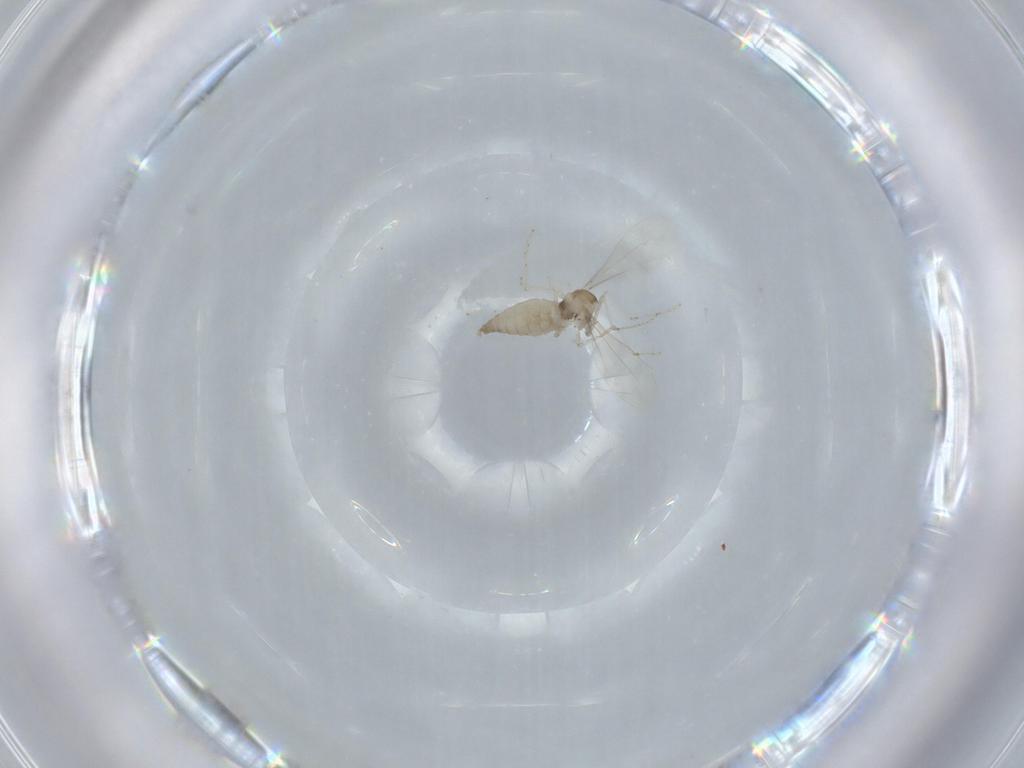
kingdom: Animalia
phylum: Arthropoda
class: Insecta
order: Diptera
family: Cecidomyiidae
